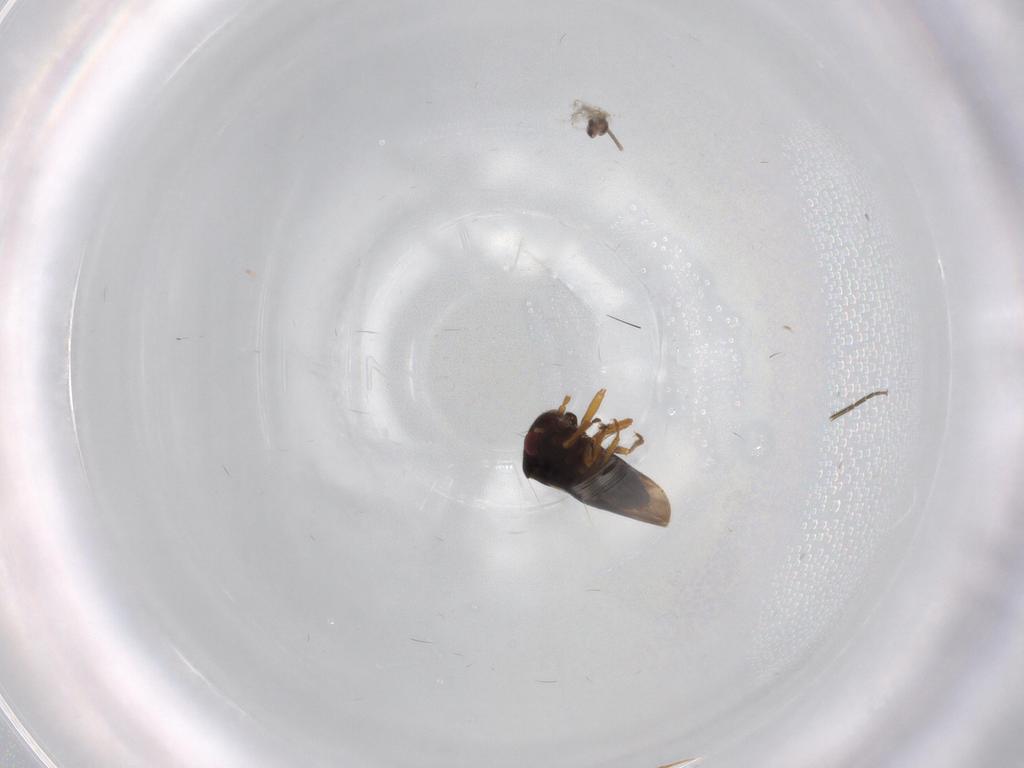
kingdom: Animalia
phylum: Arthropoda
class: Insecta
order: Hemiptera
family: Schizopteridae
